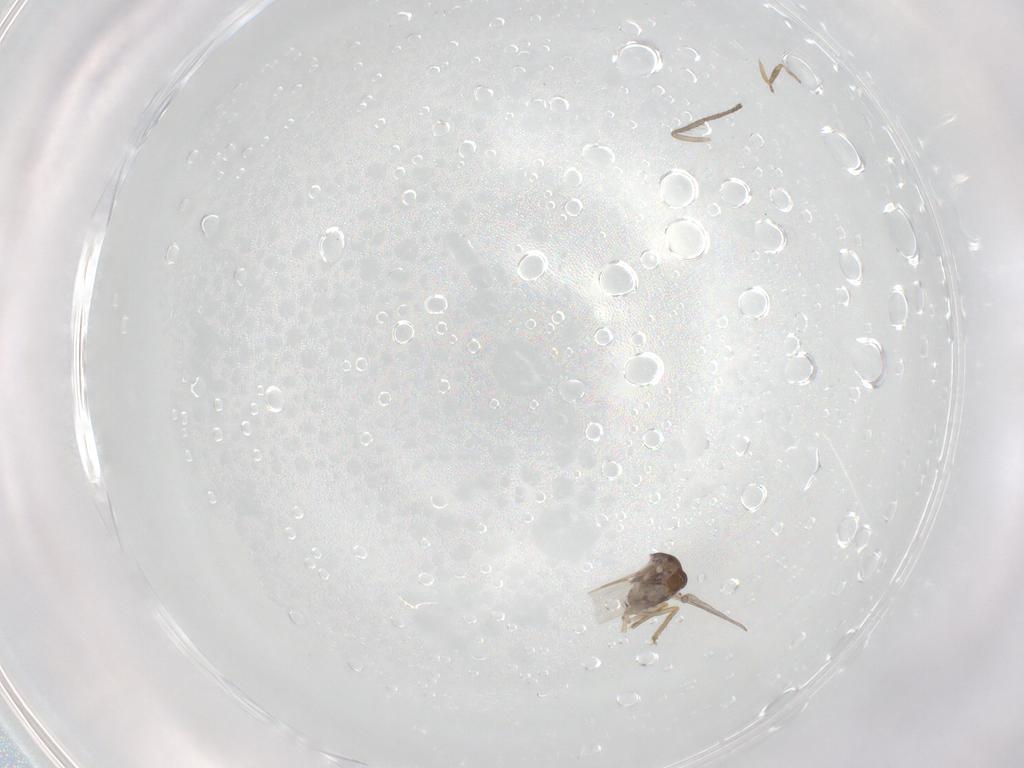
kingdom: Animalia
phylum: Arthropoda
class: Insecta
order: Diptera
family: Ceratopogonidae
